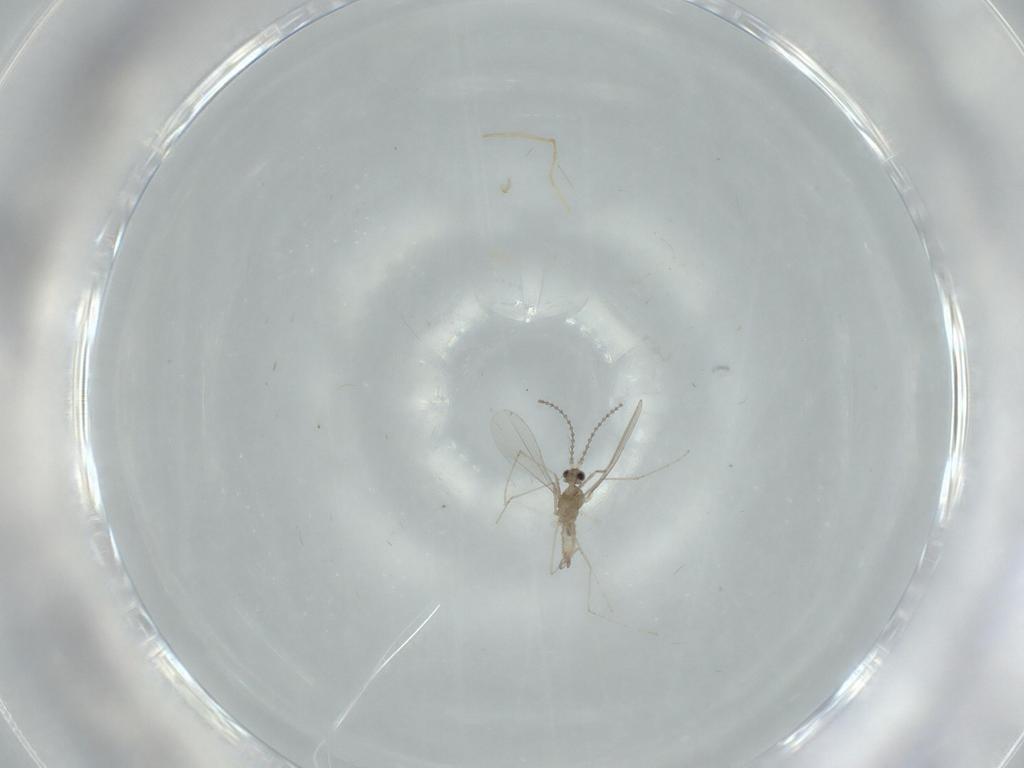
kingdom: Animalia
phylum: Arthropoda
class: Insecta
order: Diptera
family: Cecidomyiidae
